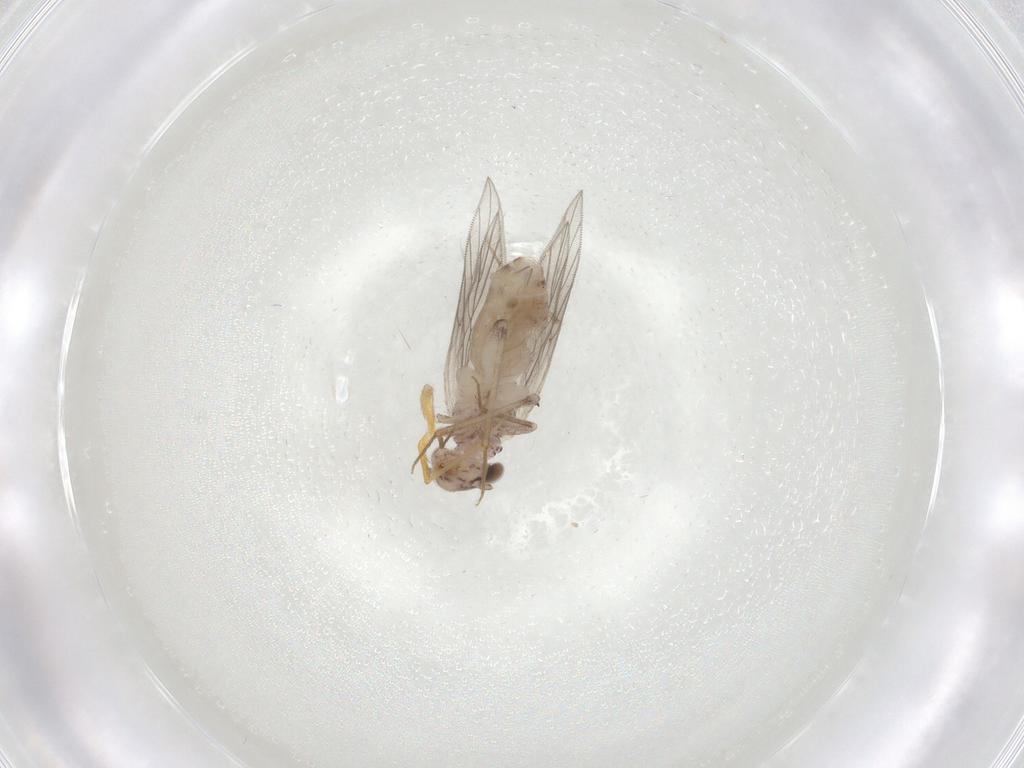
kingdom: Animalia
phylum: Arthropoda
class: Insecta
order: Psocodea
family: Lepidopsocidae
